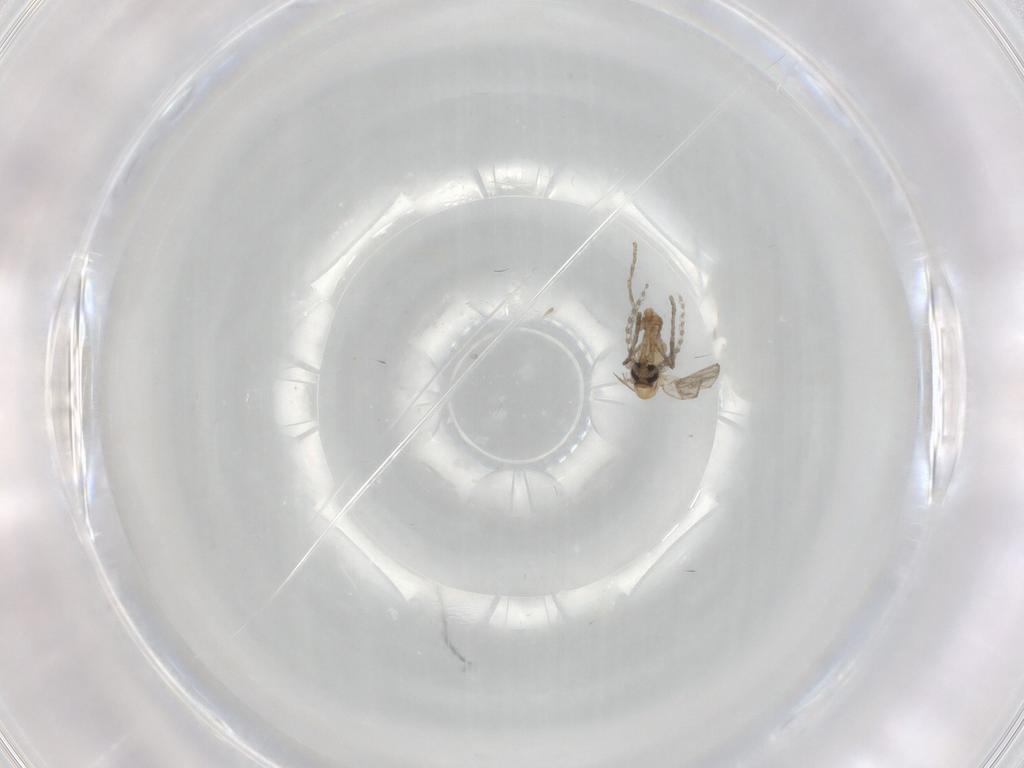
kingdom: Animalia
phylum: Arthropoda
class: Insecta
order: Diptera
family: Psychodidae
